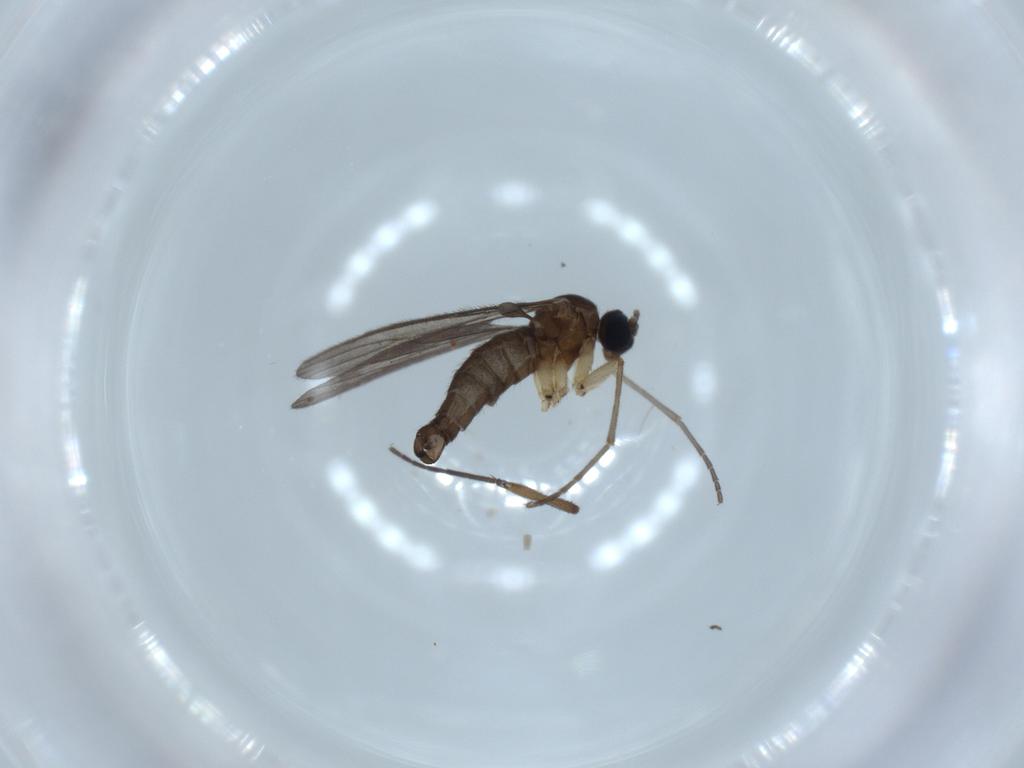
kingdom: Animalia
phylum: Arthropoda
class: Insecta
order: Diptera
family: Sciaridae
